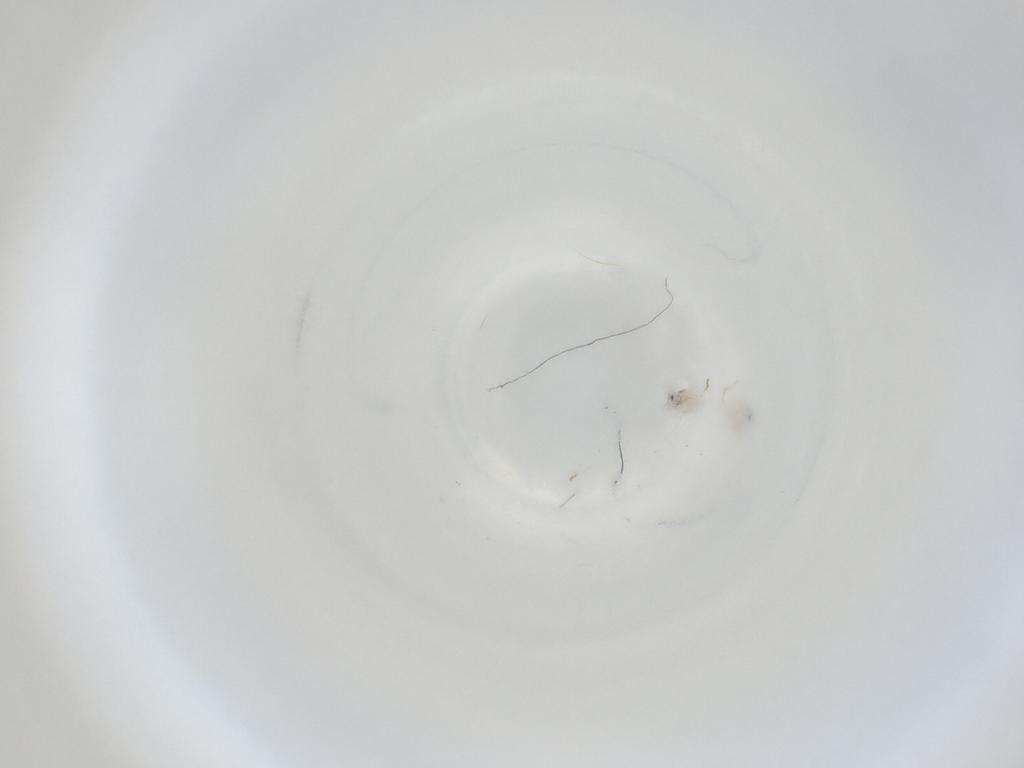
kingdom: Animalia
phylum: Arthropoda
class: Insecta
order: Diptera
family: Cecidomyiidae
